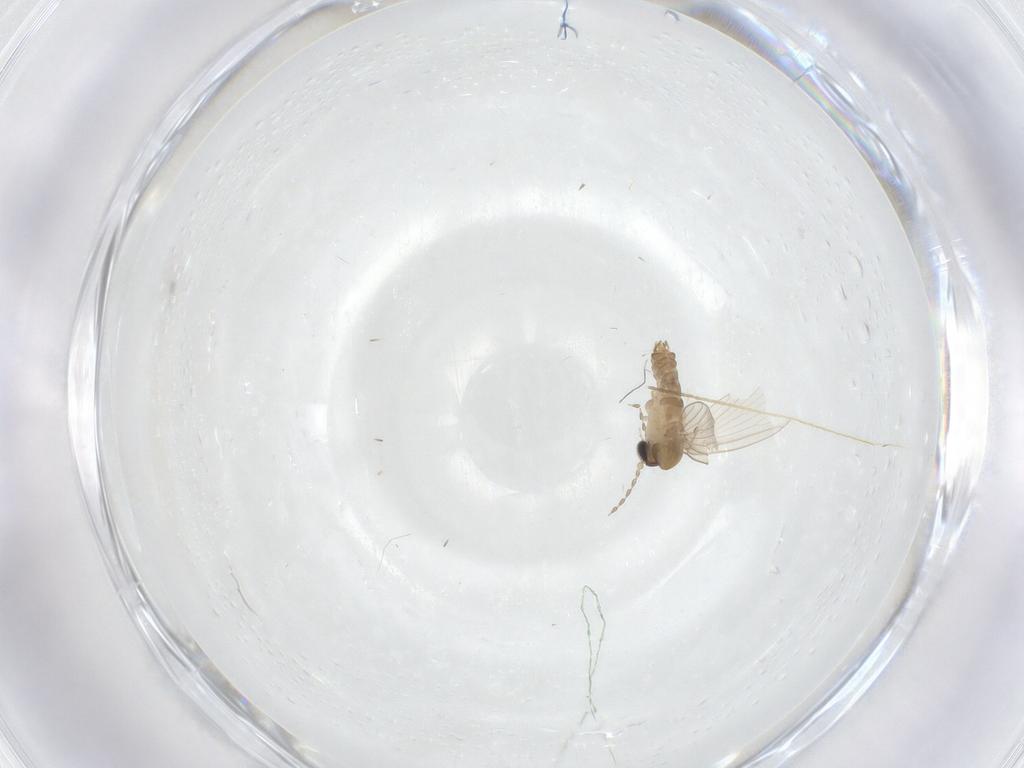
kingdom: Animalia
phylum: Arthropoda
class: Insecta
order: Diptera
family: Psychodidae
